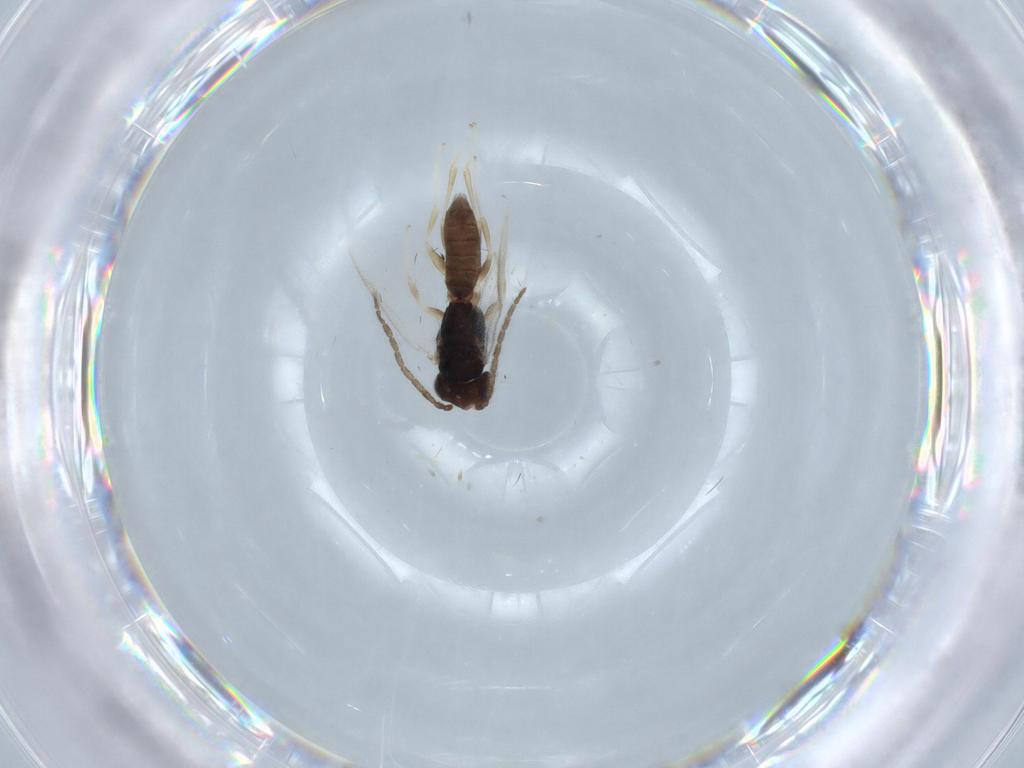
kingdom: Animalia
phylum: Arthropoda
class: Insecta
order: Hymenoptera
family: Dryinidae
